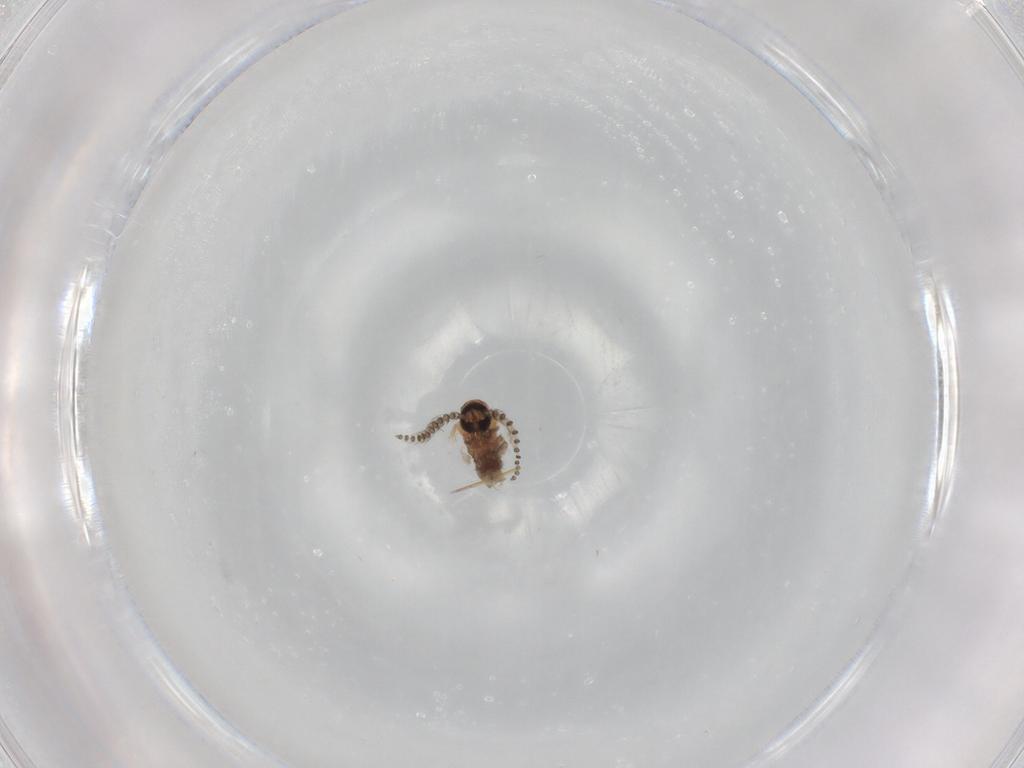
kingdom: Animalia
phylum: Arthropoda
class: Insecta
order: Diptera
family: Psychodidae
